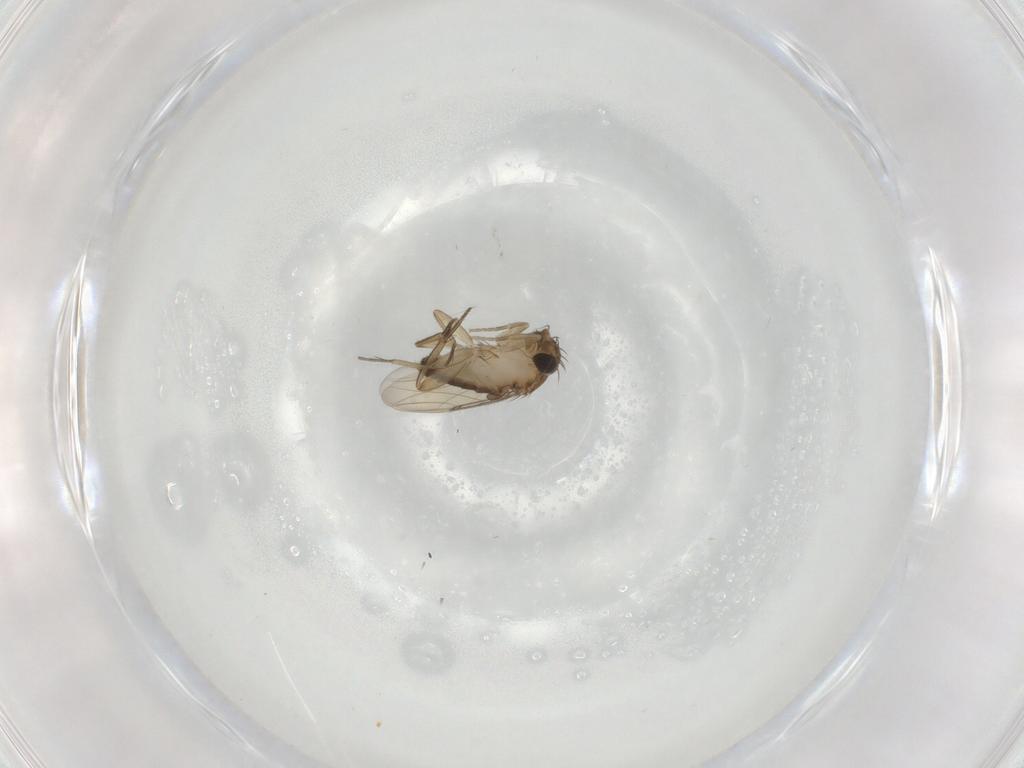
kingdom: Animalia
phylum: Arthropoda
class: Insecta
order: Diptera
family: Phoridae
